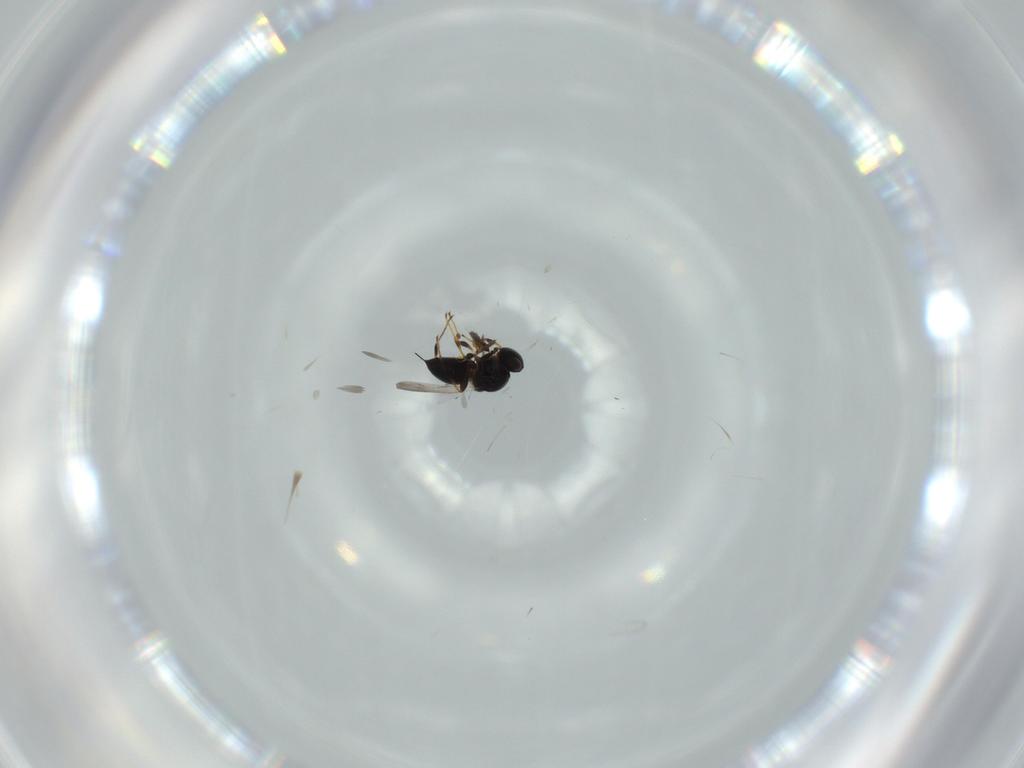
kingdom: Animalia
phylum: Arthropoda
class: Insecta
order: Hymenoptera
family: Platygastridae
